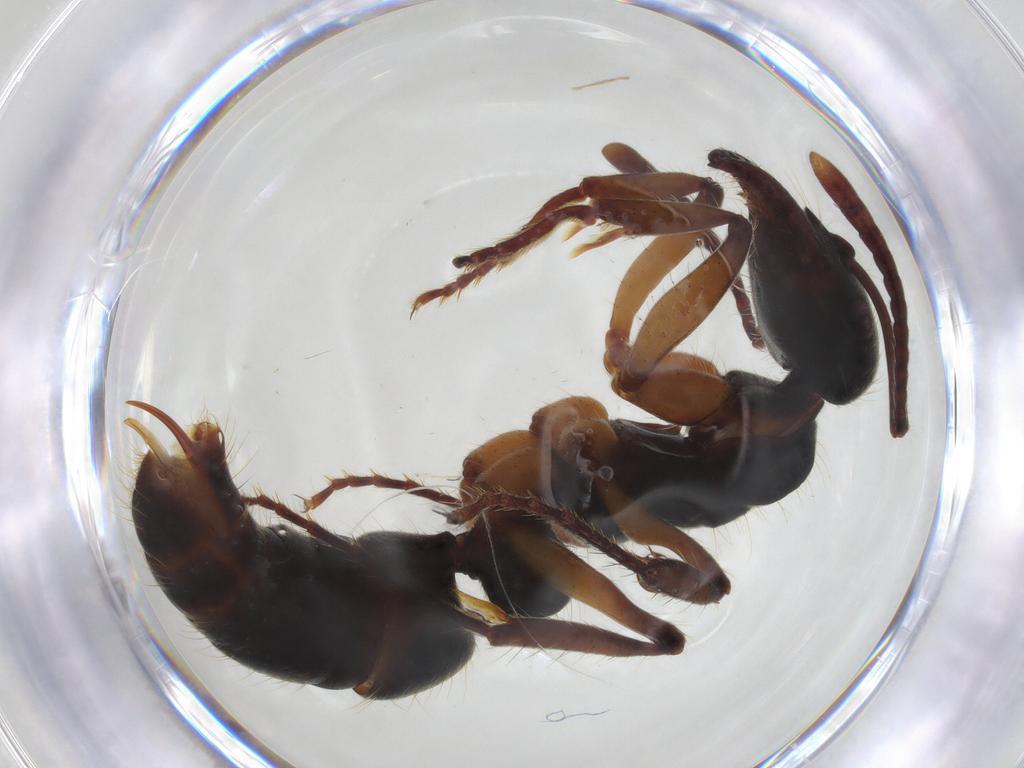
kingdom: Animalia
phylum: Arthropoda
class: Insecta
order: Hymenoptera
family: Formicidae
